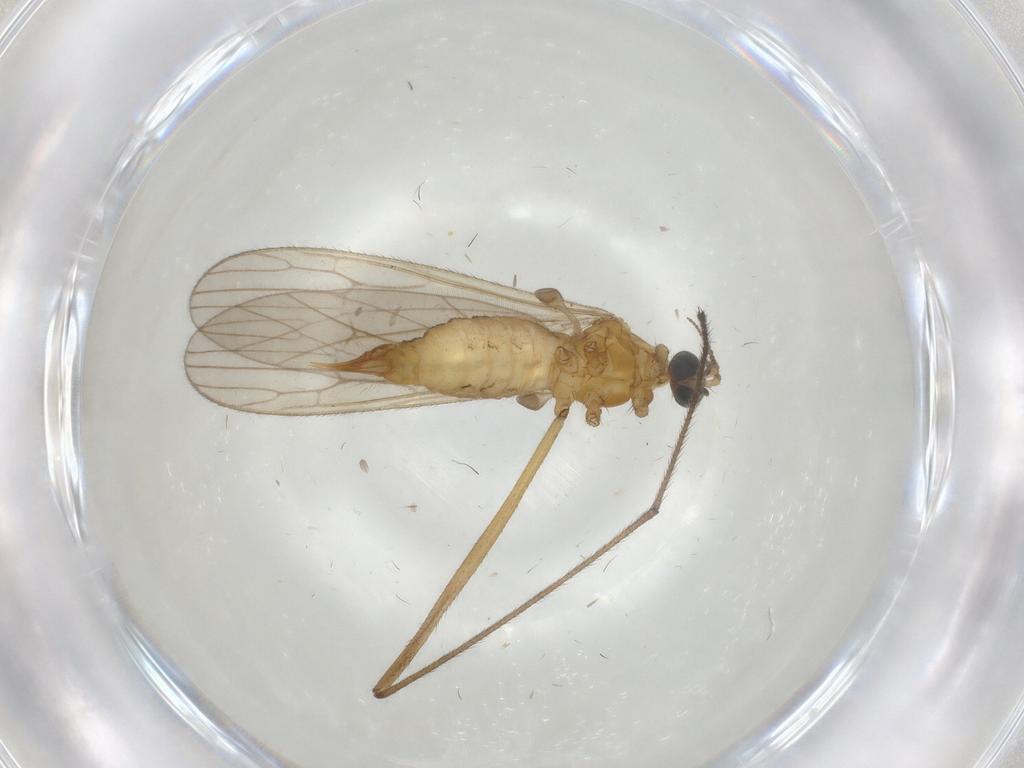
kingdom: Animalia
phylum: Arthropoda
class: Insecta
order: Diptera
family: Limoniidae
